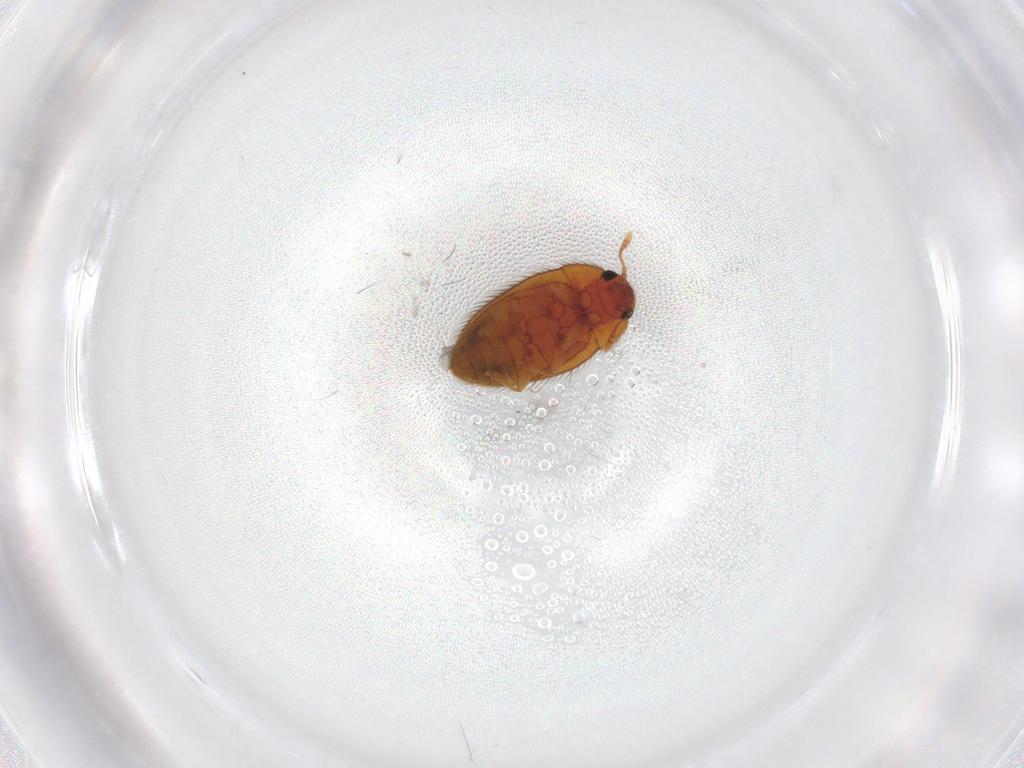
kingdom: Animalia
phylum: Arthropoda
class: Insecta
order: Coleoptera
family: Biphyllidae
